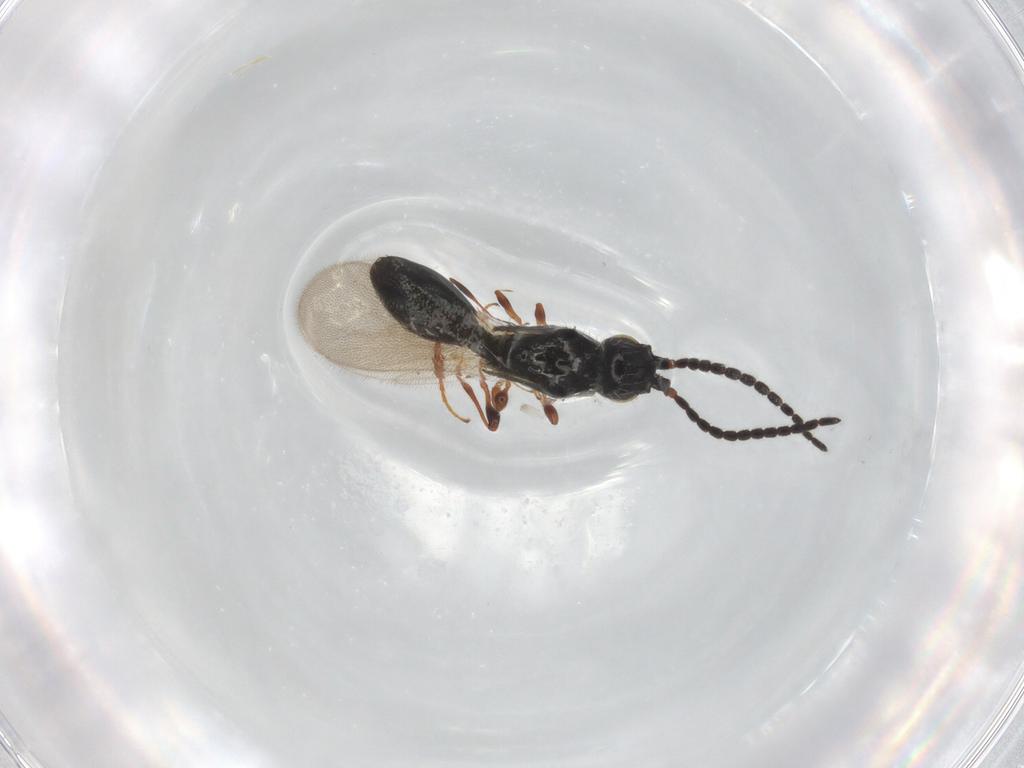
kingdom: Animalia
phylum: Arthropoda
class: Insecta
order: Hymenoptera
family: Diapriidae
